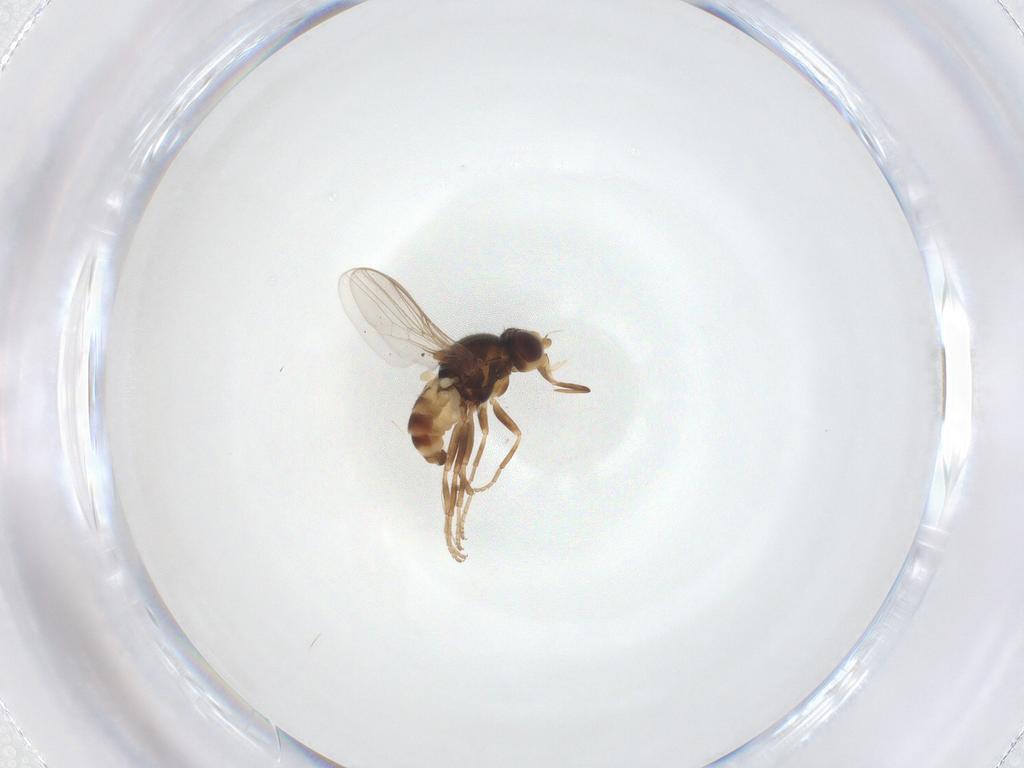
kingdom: Animalia
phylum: Arthropoda
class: Insecta
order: Diptera
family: Chloropidae
